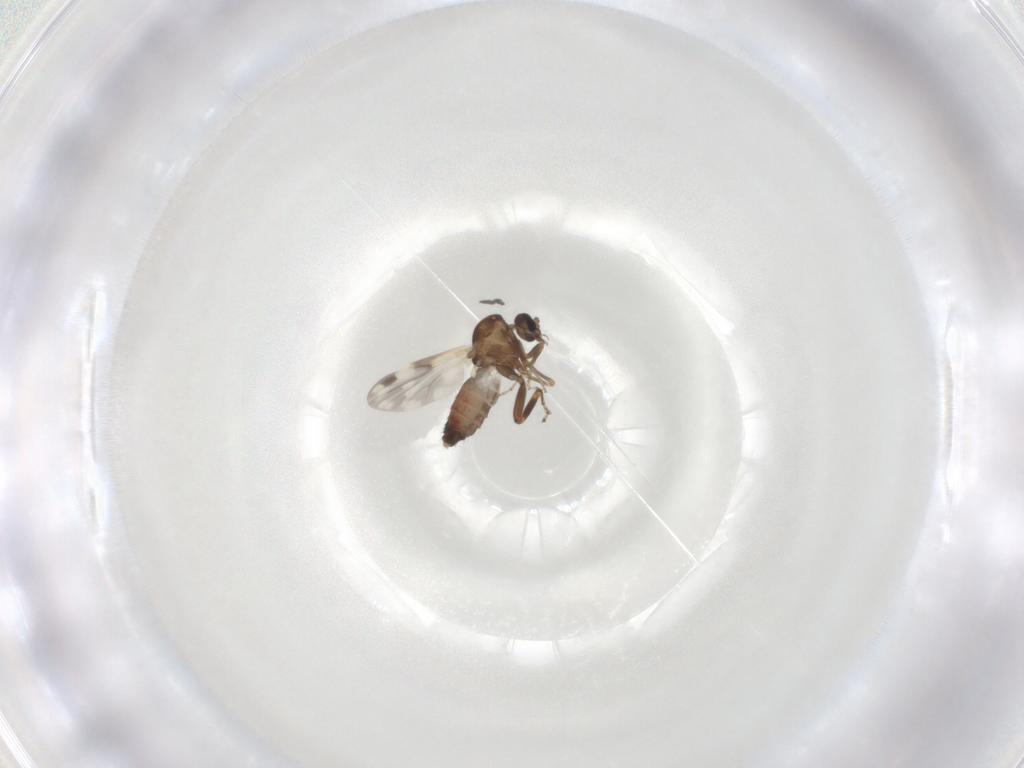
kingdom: Animalia
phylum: Arthropoda
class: Insecta
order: Diptera
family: Ceratopogonidae
